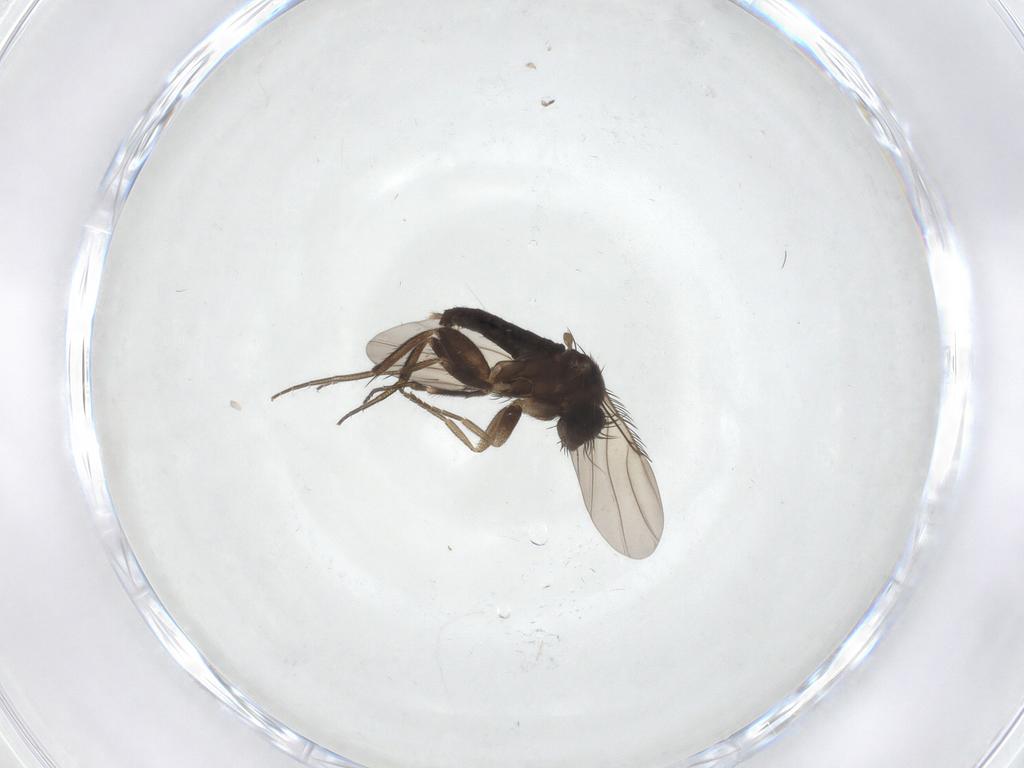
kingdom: Animalia
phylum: Arthropoda
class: Insecta
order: Diptera
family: Phoridae
